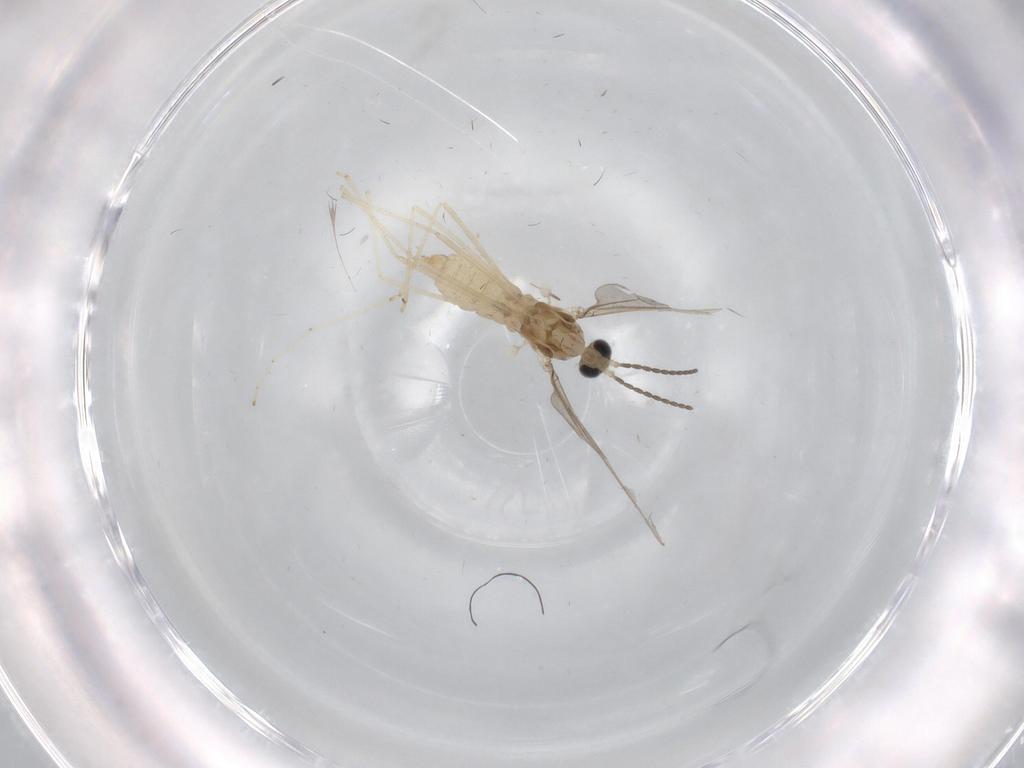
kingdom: Animalia
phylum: Arthropoda
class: Insecta
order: Diptera
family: Cecidomyiidae
